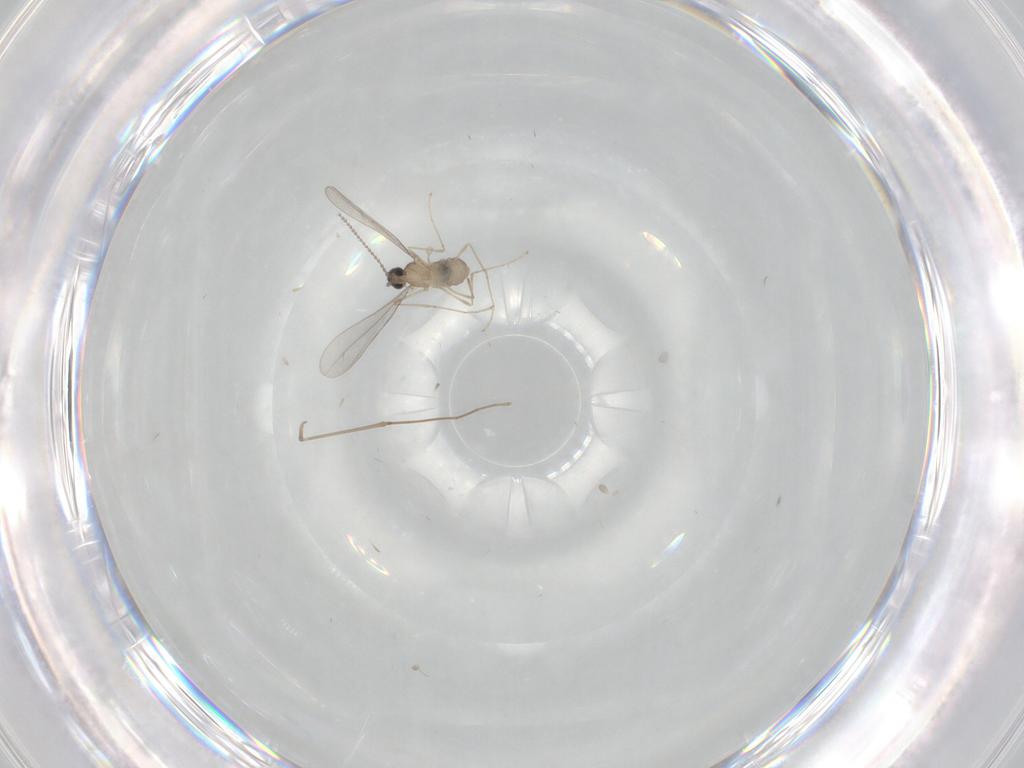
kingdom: Animalia
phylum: Arthropoda
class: Insecta
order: Diptera
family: Cecidomyiidae
